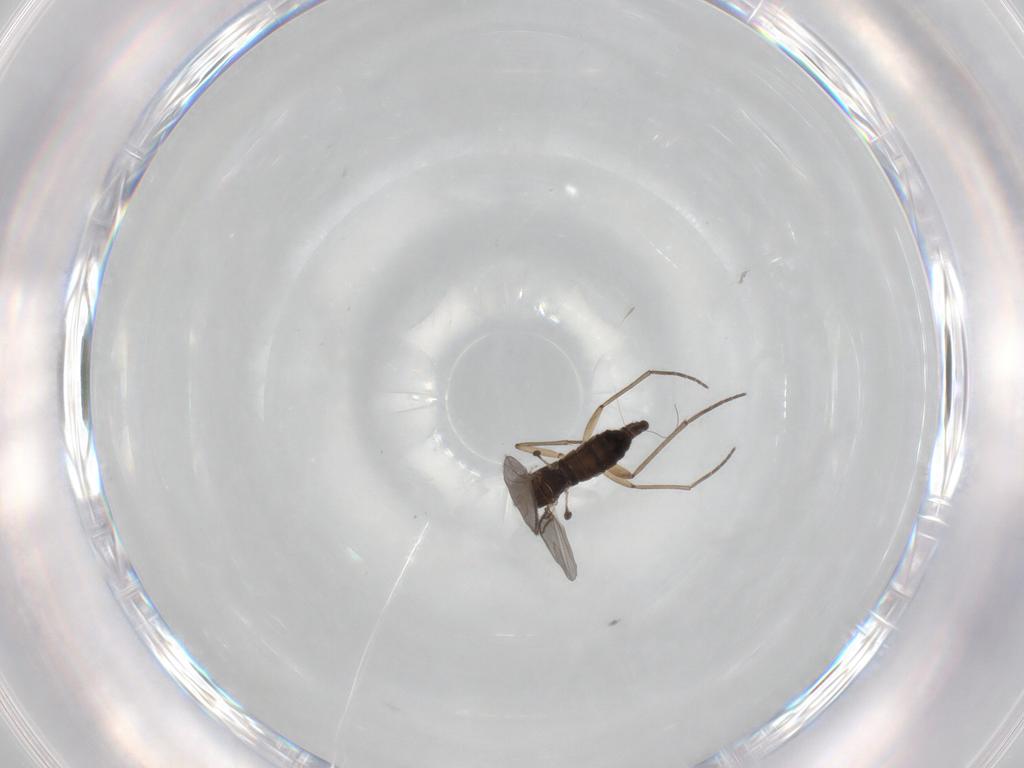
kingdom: Animalia
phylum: Arthropoda
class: Insecta
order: Diptera
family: Sciaridae
